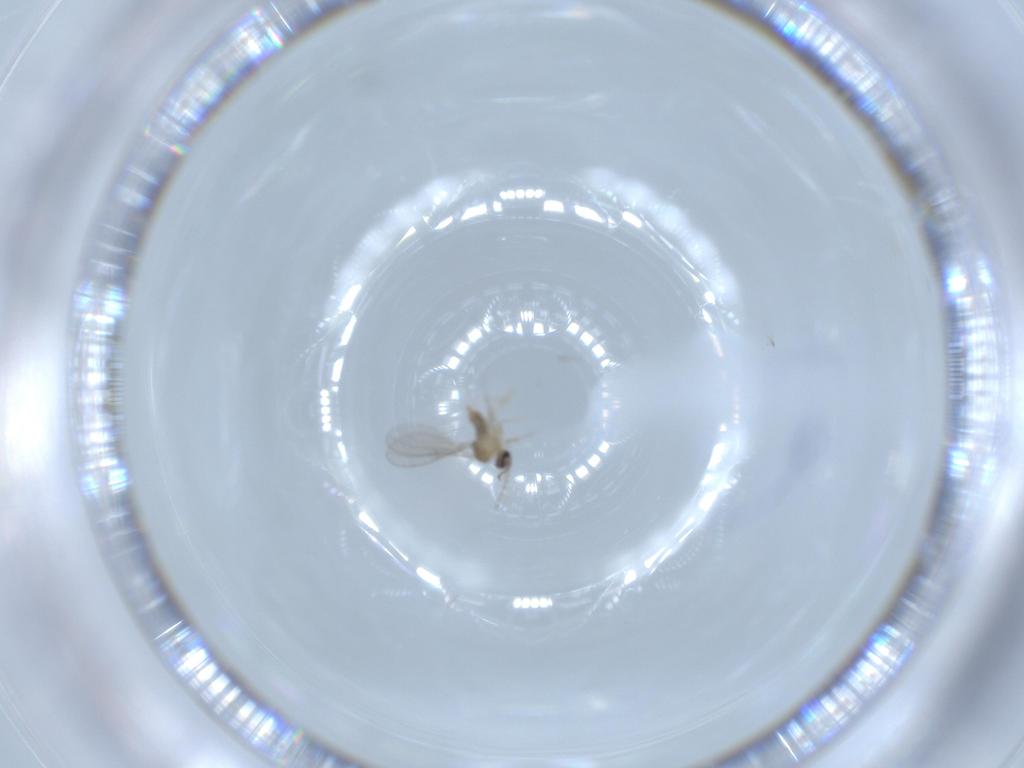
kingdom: Animalia
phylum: Arthropoda
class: Insecta
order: Diptera
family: Cecidomyiidae
